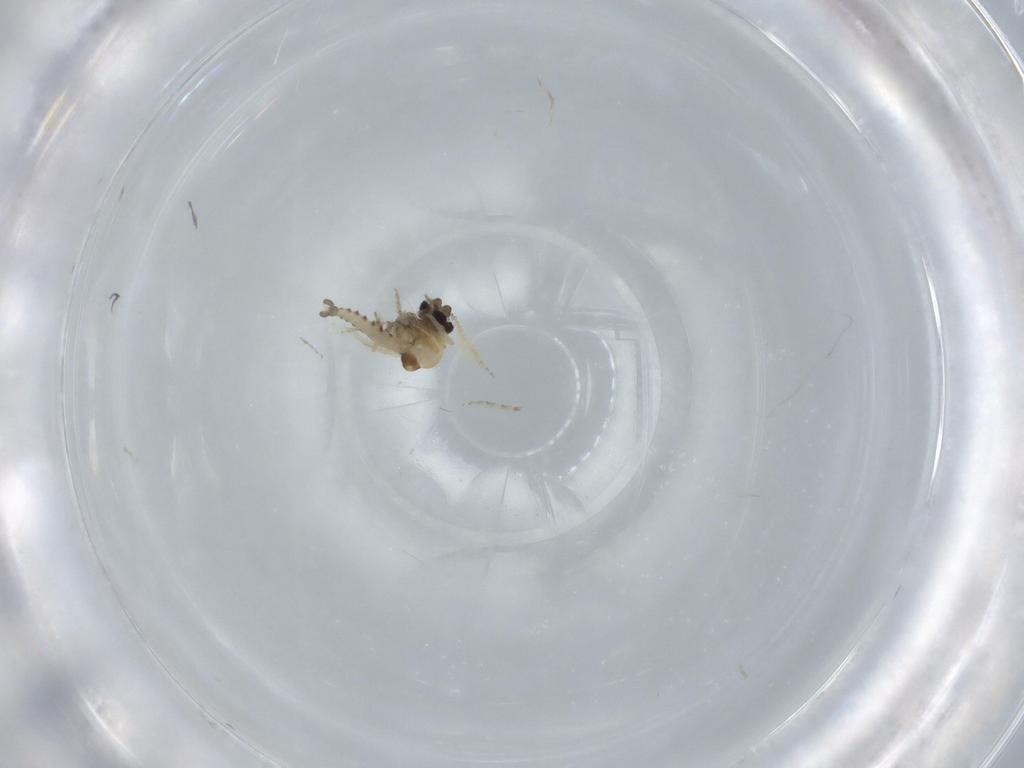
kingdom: Animalia
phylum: Arthropoda
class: Insecta
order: Diptera
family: Ceratopogonidae
